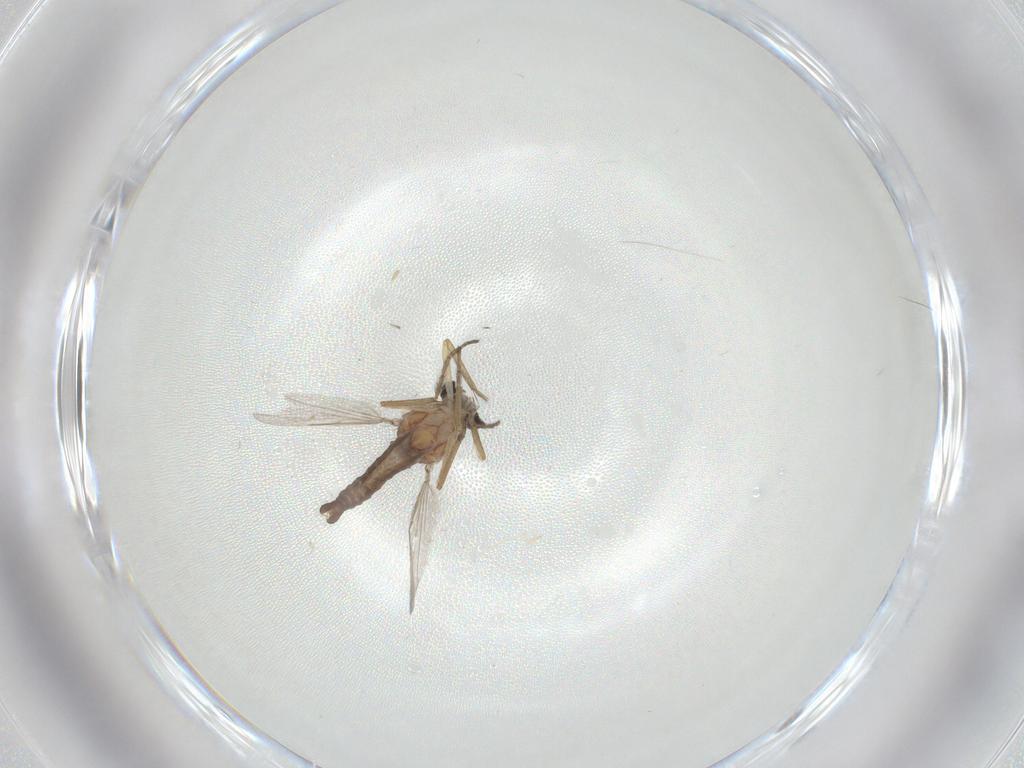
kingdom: Animalia
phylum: Arthropoda
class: Insecta
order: Diptera
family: Ceratopogonidae
